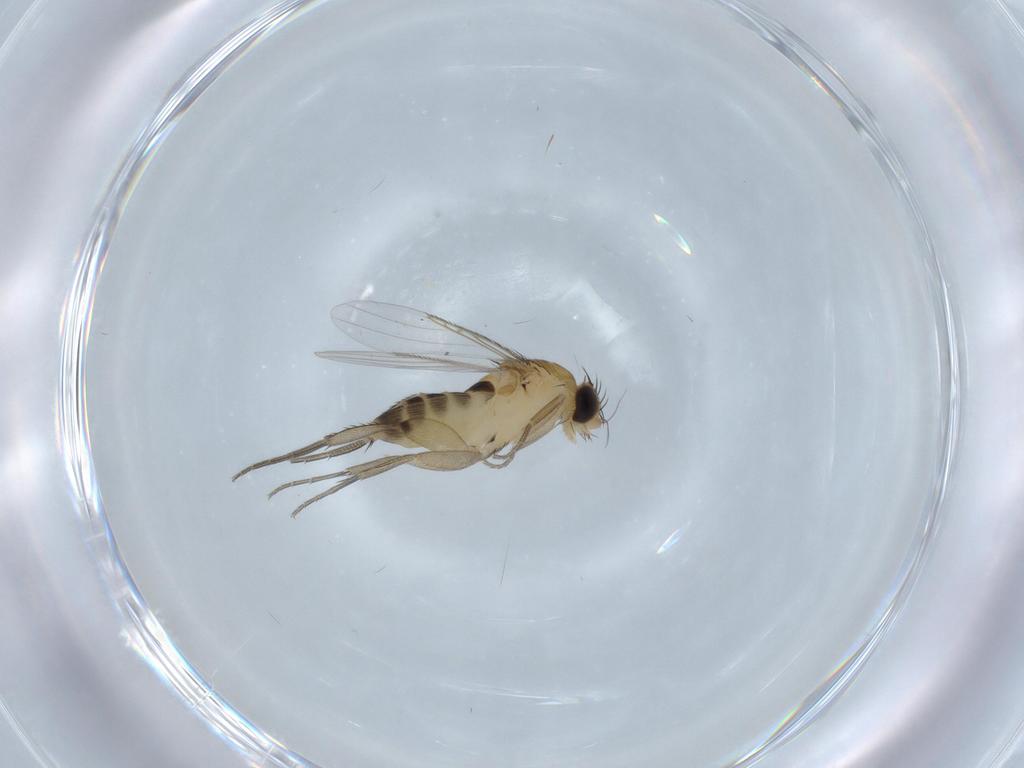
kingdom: Animalia
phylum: Arthropoda
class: Insecta
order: Diptera
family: Phoridae
